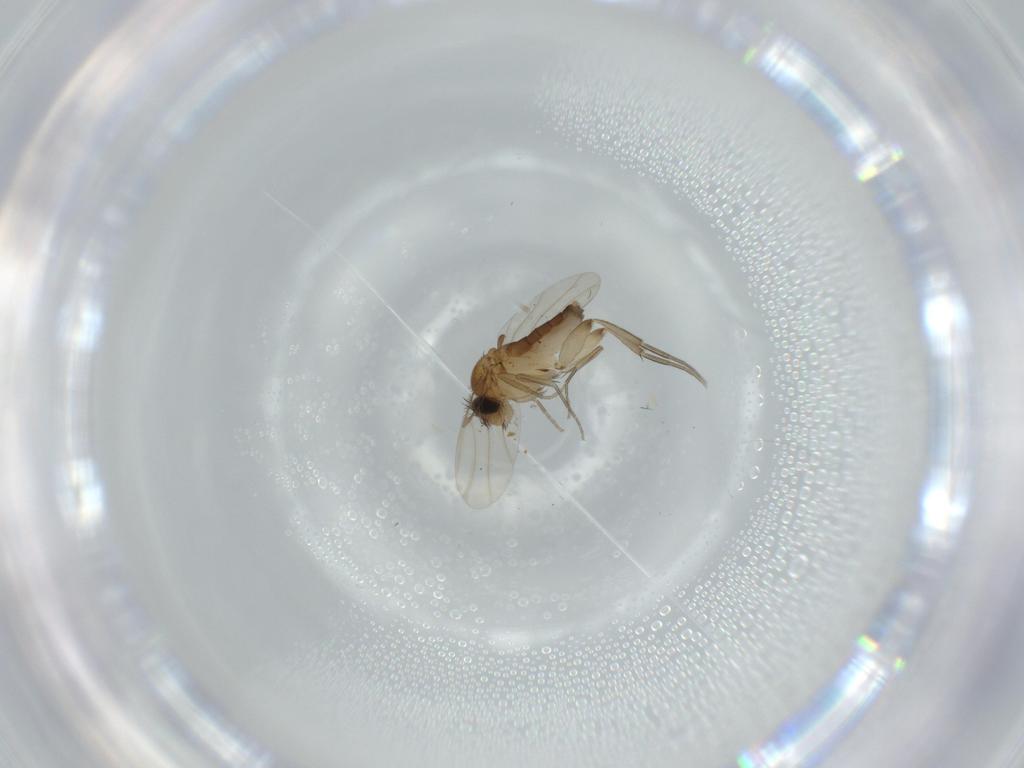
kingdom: Animalia
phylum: Arthropoda
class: Insecta
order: Diptera
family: Phoridae
